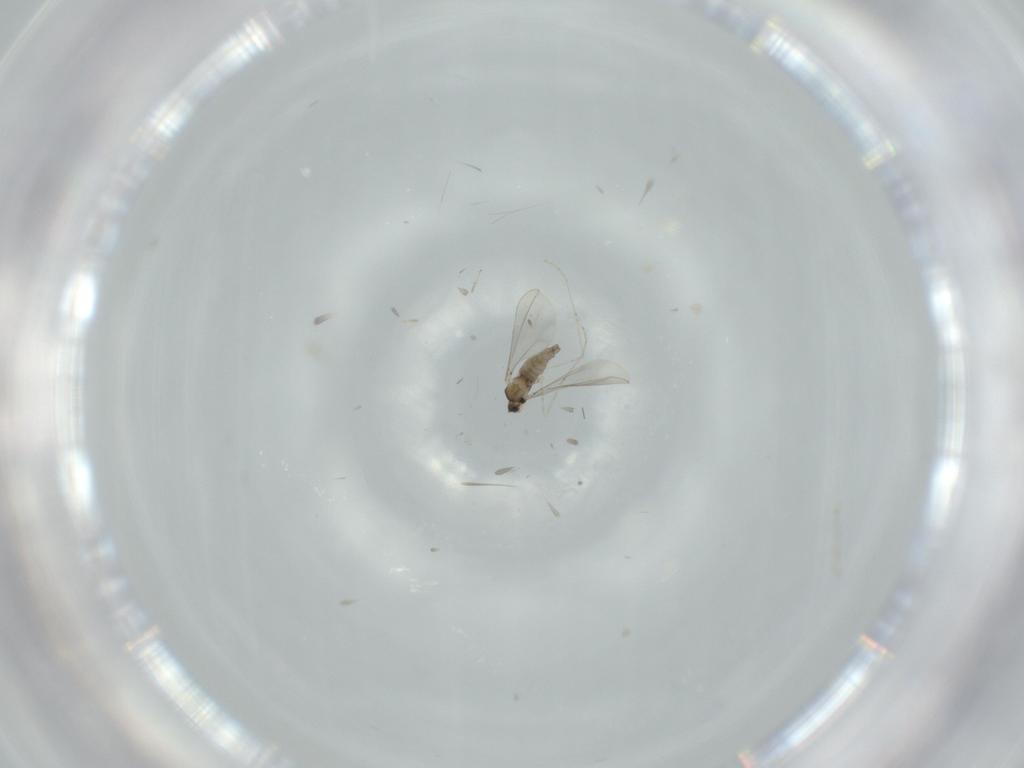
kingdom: Animalia
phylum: Arthropoda
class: Insecta
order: Diptera
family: Cecidomyiidae
